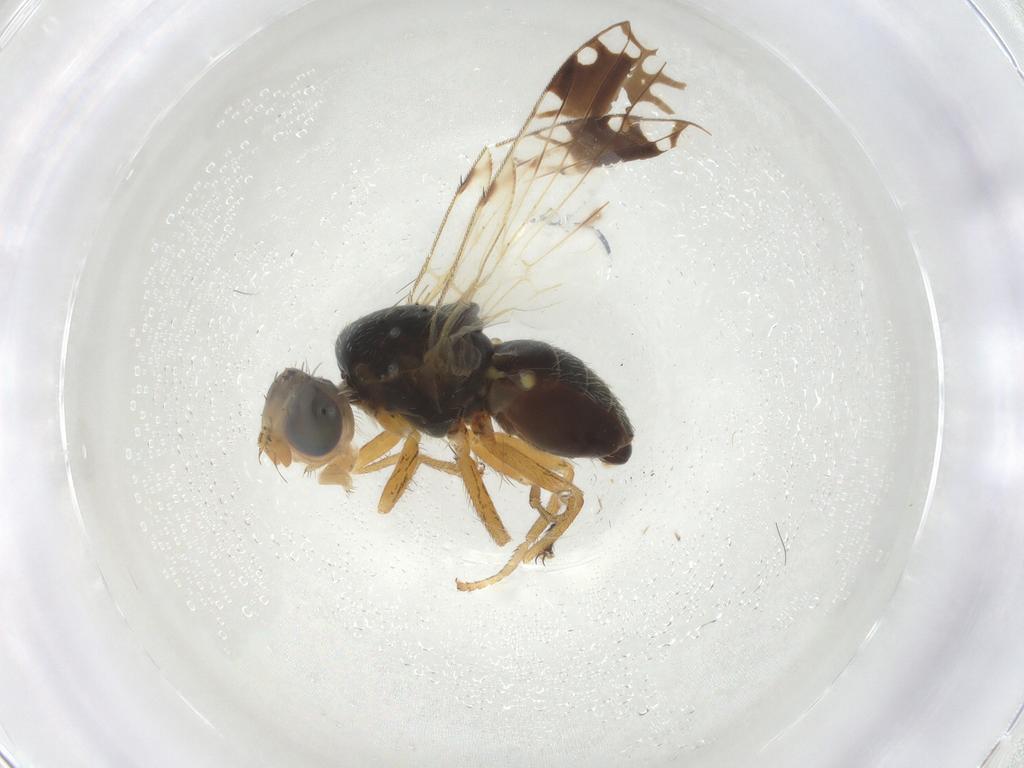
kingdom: Animalia
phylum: Arthropoda
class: Insecta
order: Diptera
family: Tephritidae
